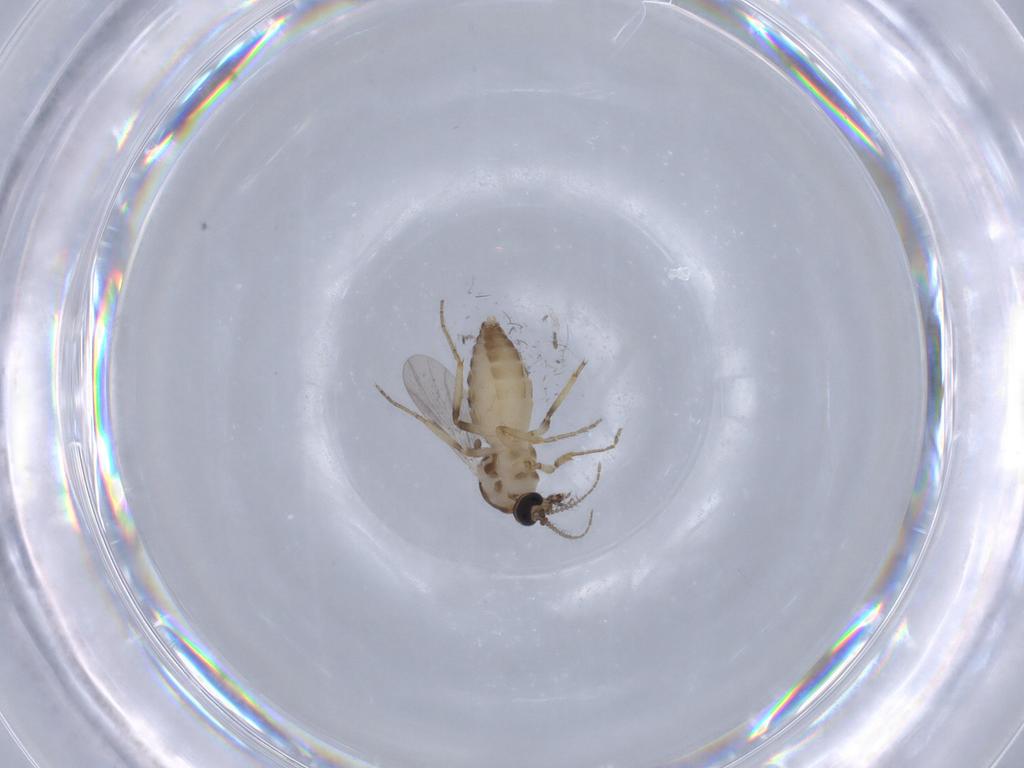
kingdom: Animalia
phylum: Arthropoda
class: Insecta
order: Diptera
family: Ceratopogonidae
